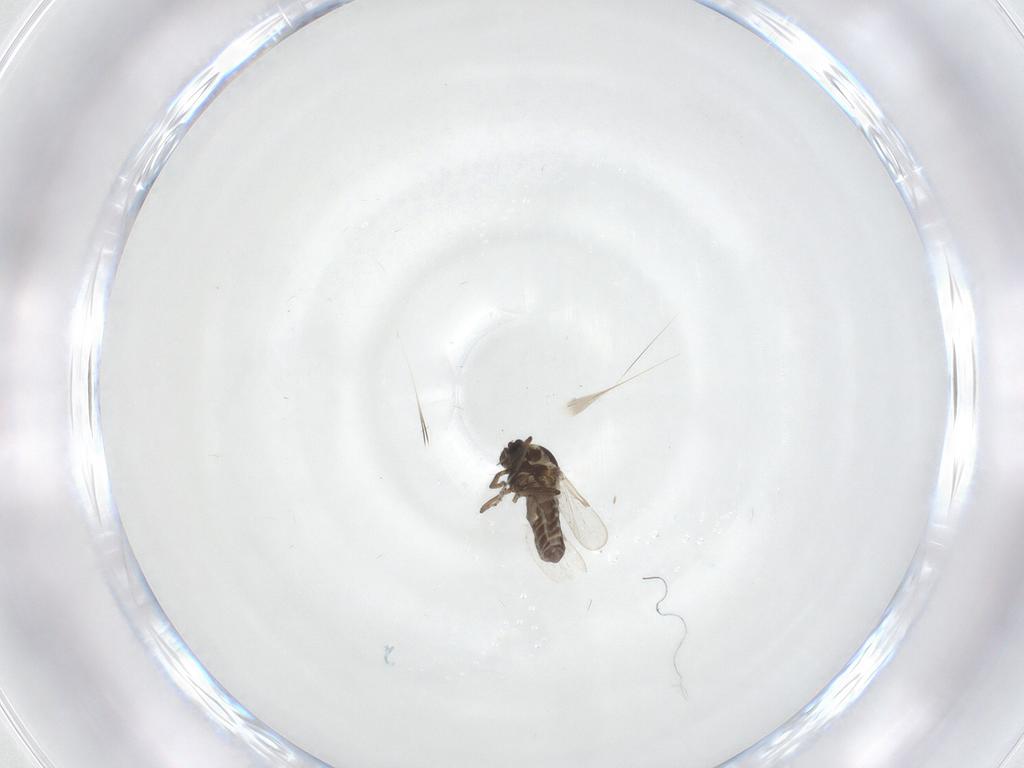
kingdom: Animalia
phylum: Arthropoda
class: Insecta
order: Diptera
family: Ceratopogonidae
